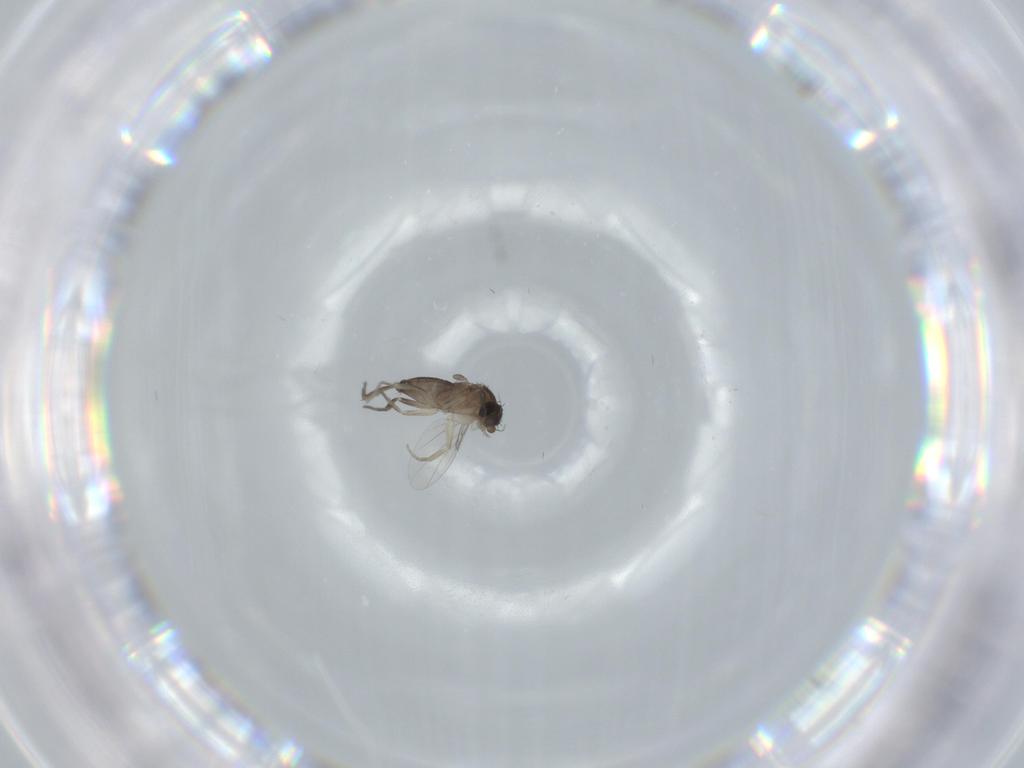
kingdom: Animalia
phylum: Arthropoda
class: Insecta
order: Diptera
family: Phoridae
